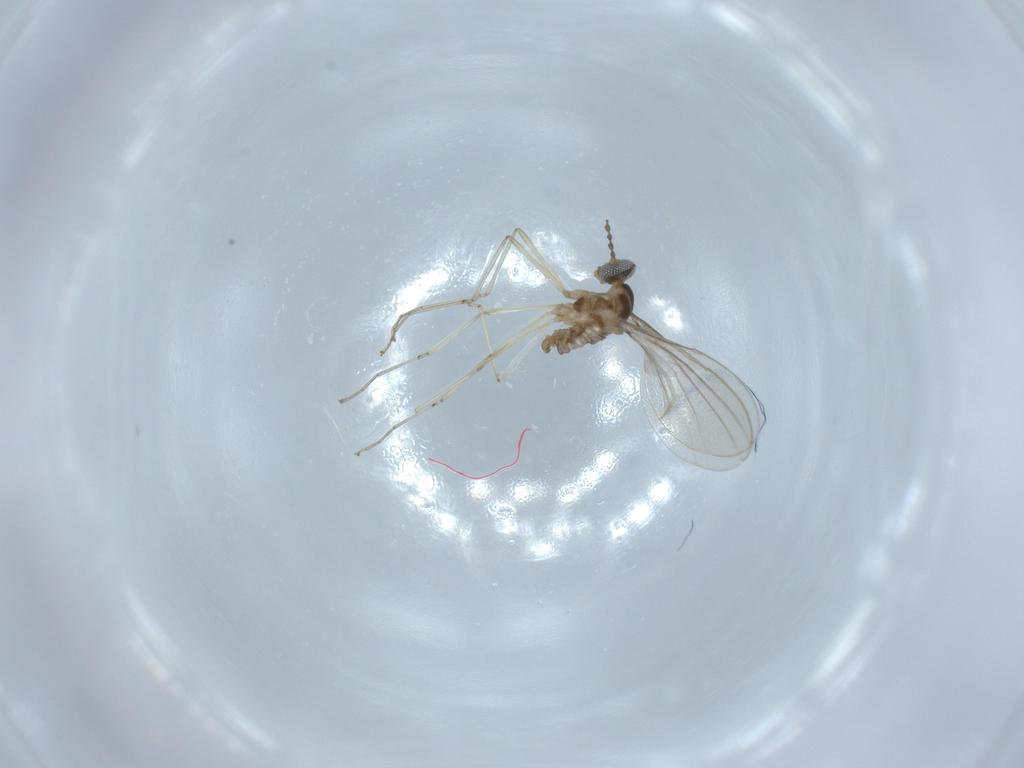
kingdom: Animalia
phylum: Arthropoda
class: Insecta
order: Diptera
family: Cecidomyiidae
